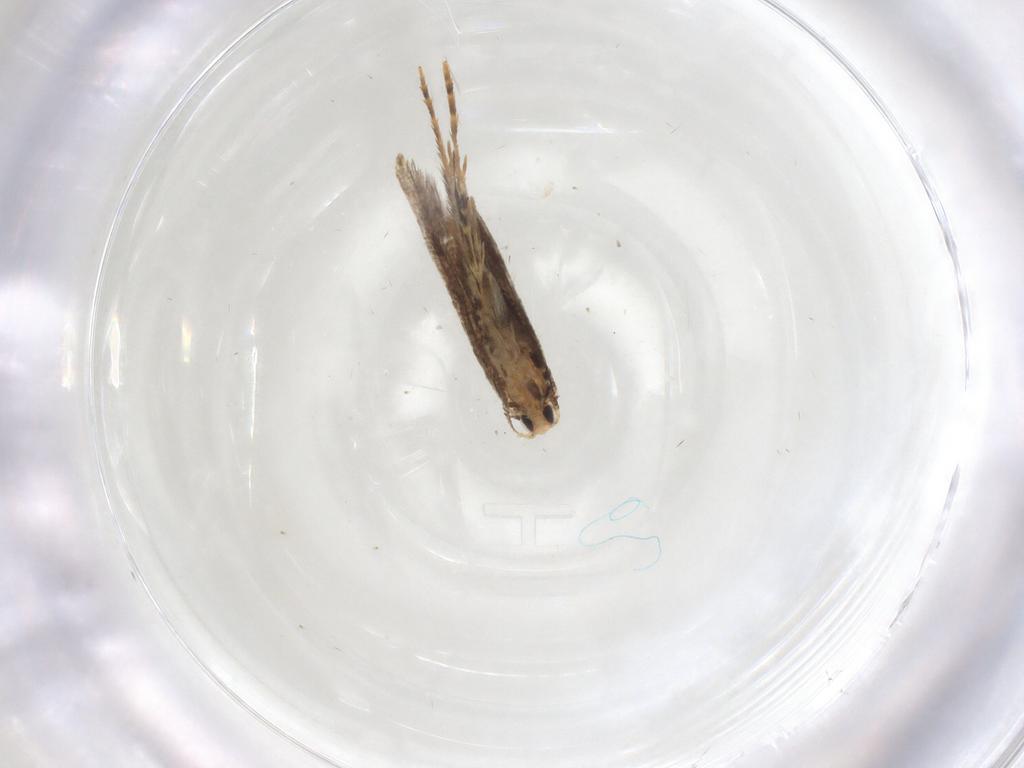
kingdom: Animalia
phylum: Arthropoda
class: Insecta
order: Lepidoptera
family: Tineidae
